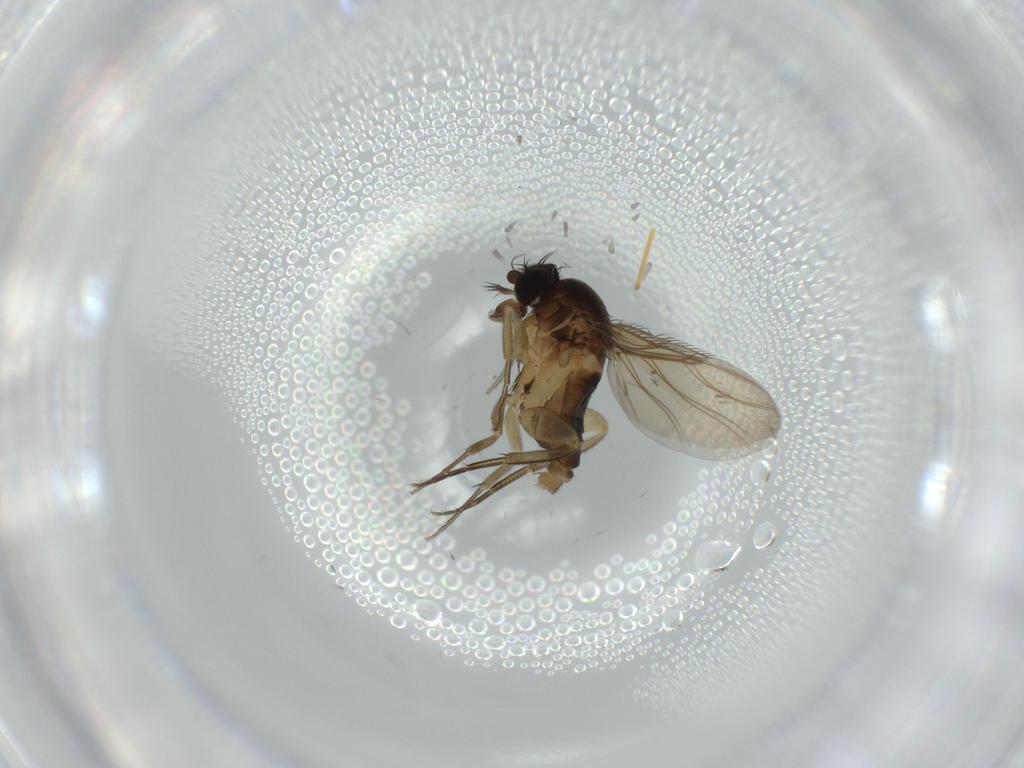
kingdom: Animalia
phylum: Arthropoda
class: Insecta
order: Diptera
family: Phoridae
